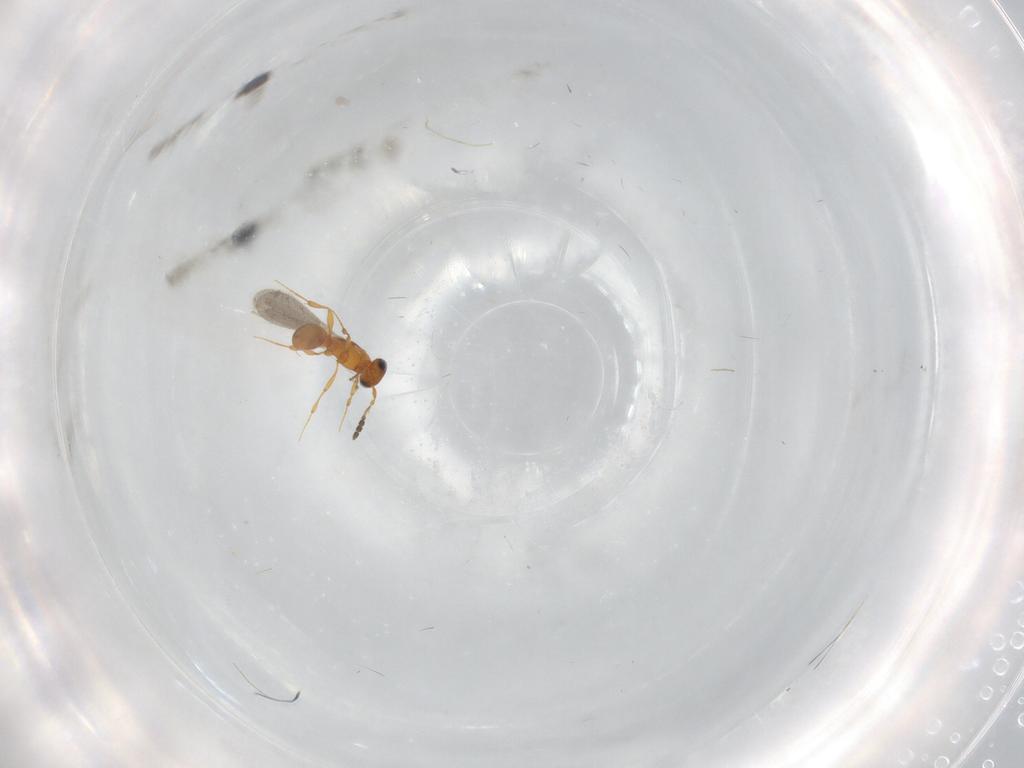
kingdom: Animalia
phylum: Arthropoda
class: Insecta
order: Hymenoptera
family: Platygastridae
